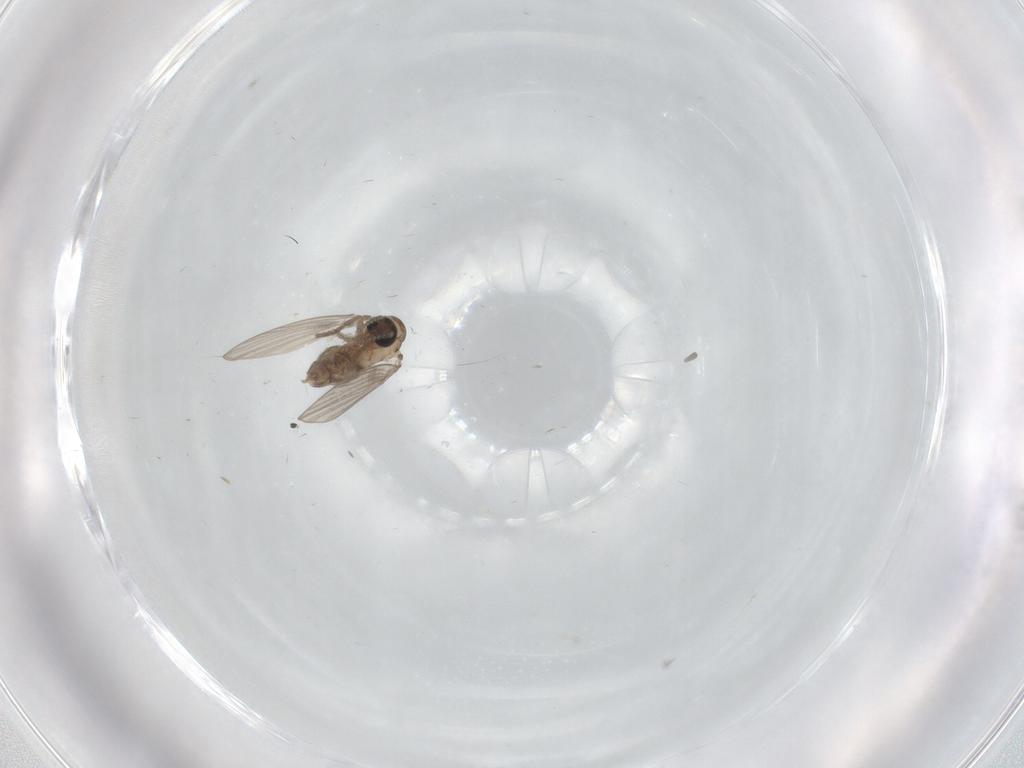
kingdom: Animalia
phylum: Arthropoda
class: Insecta
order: Diptera
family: Psychodidae
